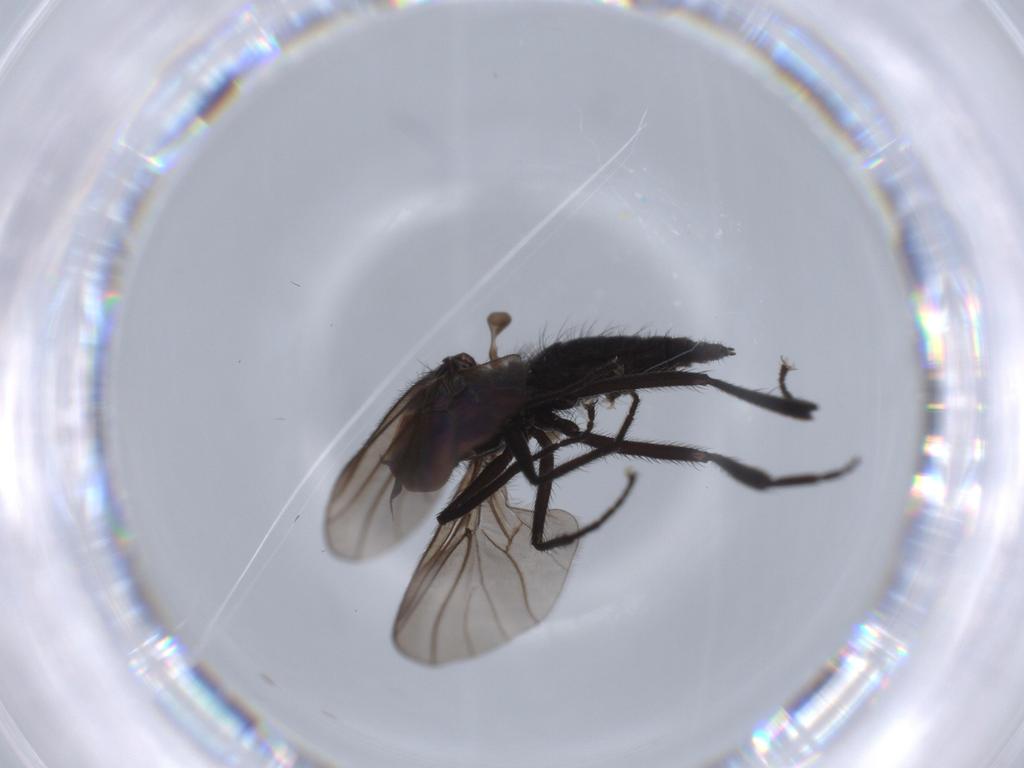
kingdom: Animalia
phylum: Arthropoda
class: Insecta
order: Diptera
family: Hybotidae
